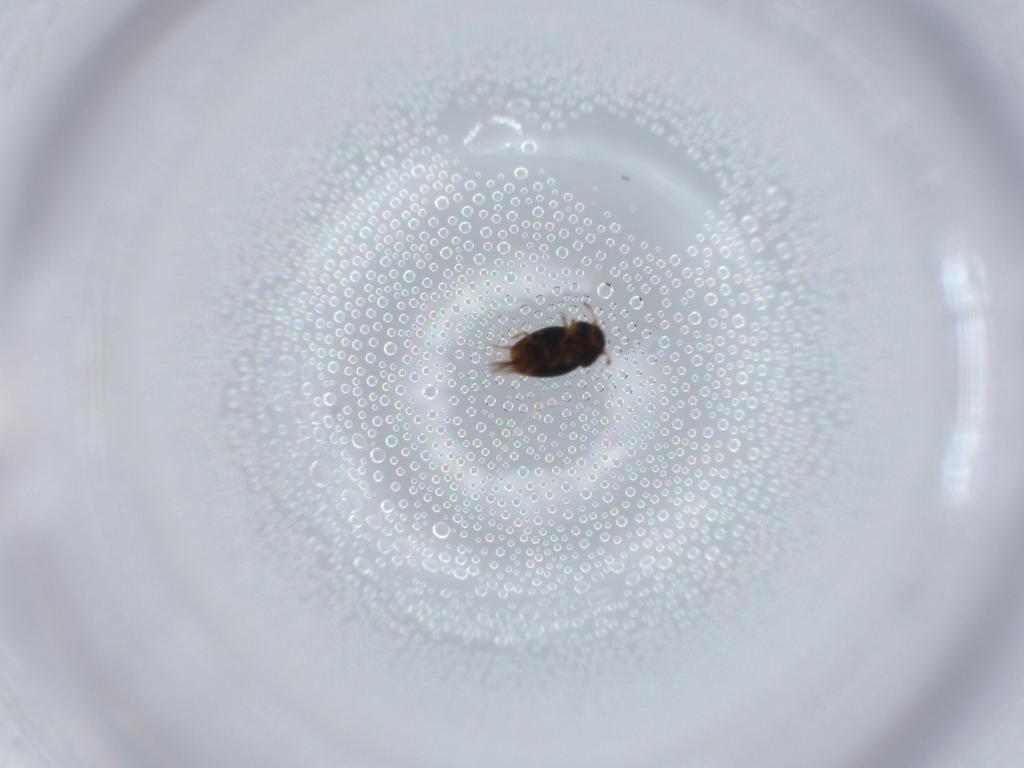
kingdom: Animalia
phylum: Arthropoda
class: Insecta
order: Coleoptera
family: Ptiliidae
